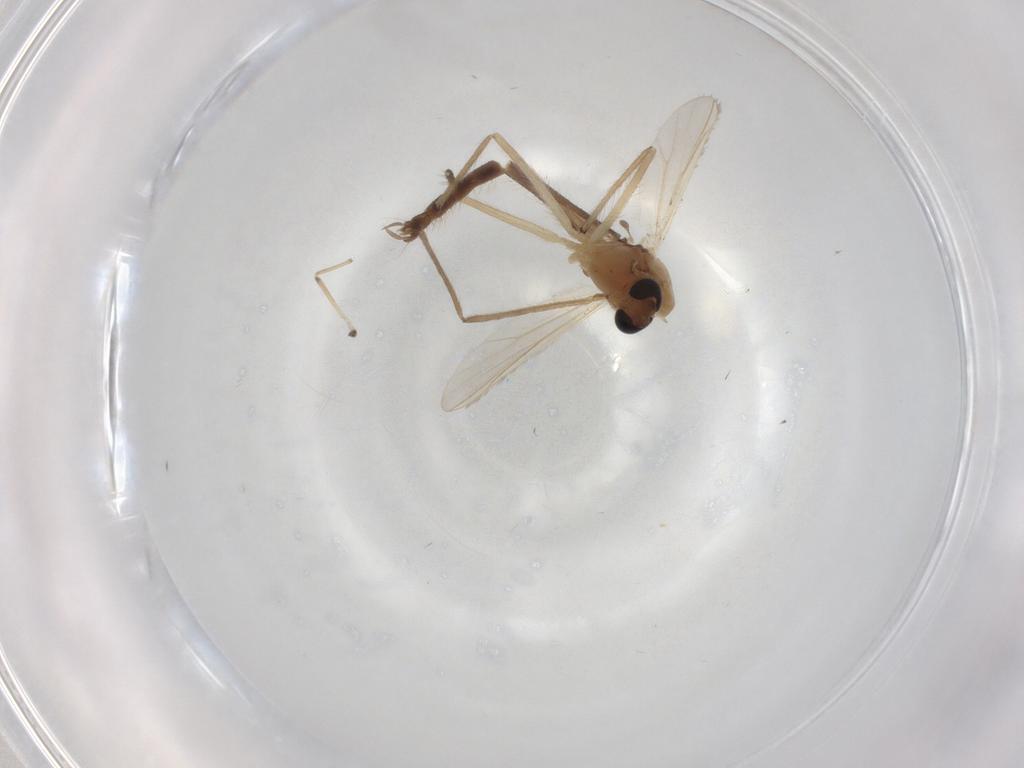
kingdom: Animalia
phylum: Arthropoda
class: Insecta
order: Diptera
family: Chironomidae
